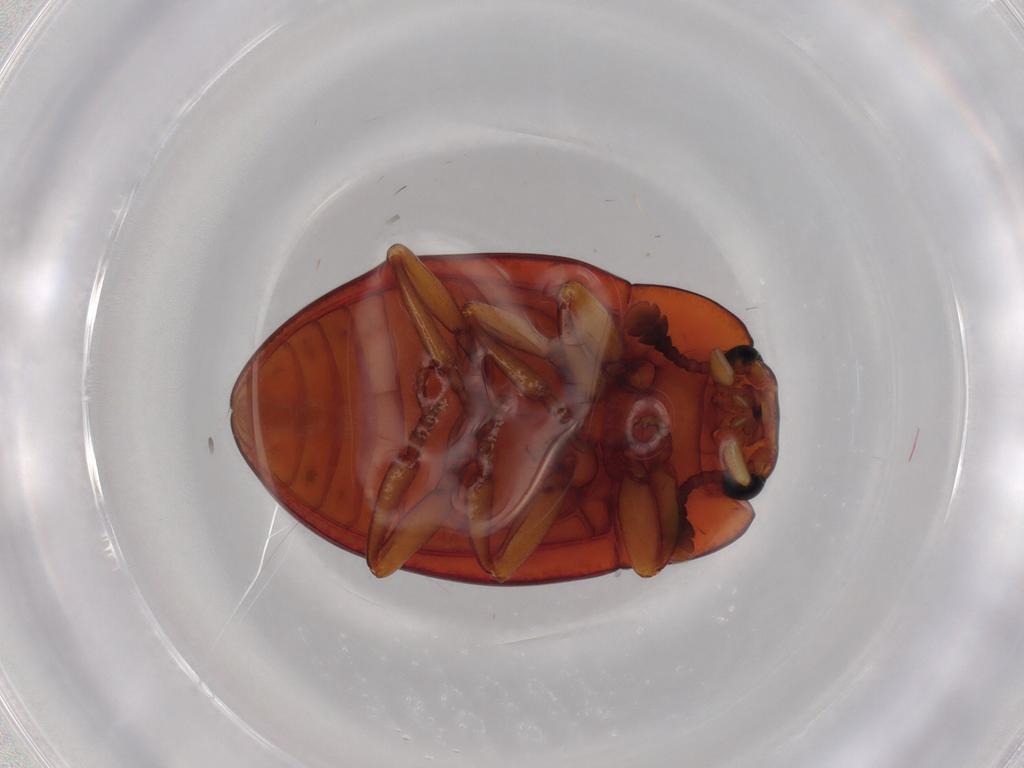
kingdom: Animalia
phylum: Arthropoda
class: Insecta
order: Coleoptera
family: Erotylidae
